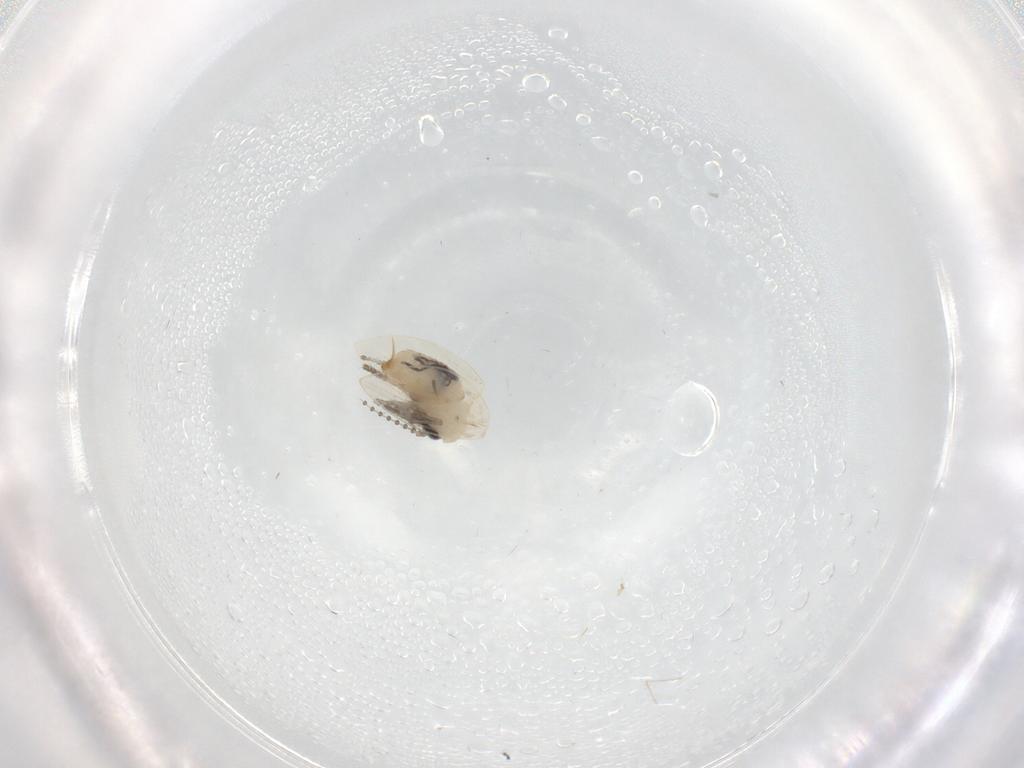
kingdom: Animalia
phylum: Arthropoda
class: Insecta
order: Diptera
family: Psychodidae
